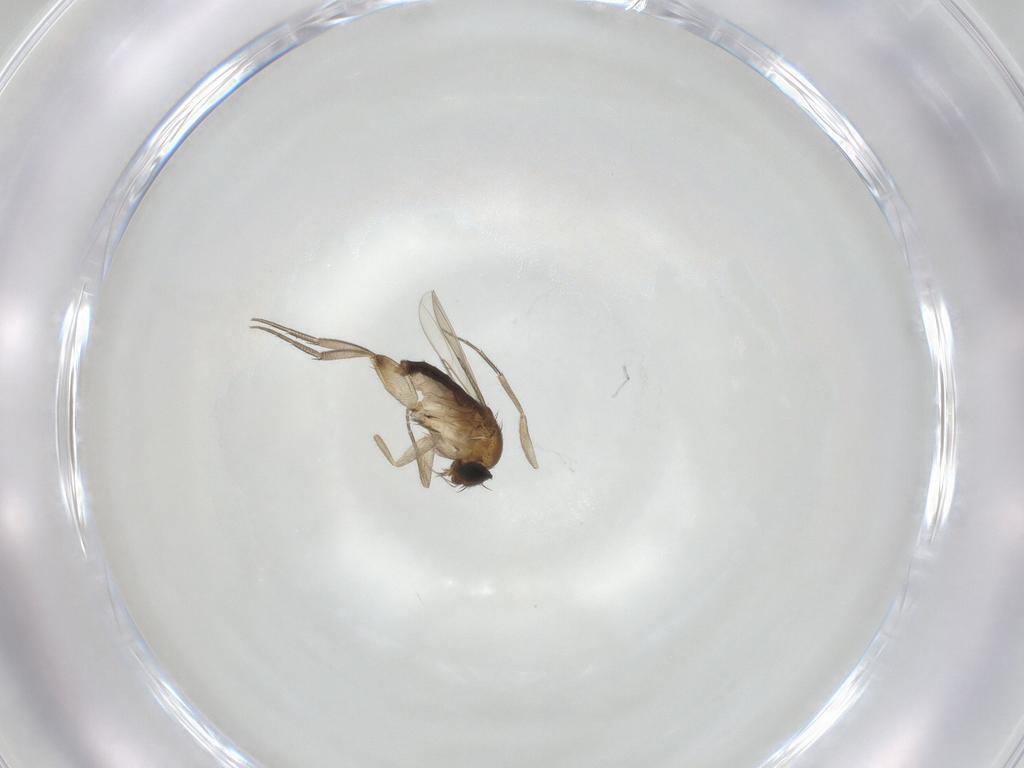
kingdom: Animalia
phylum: Arthropoda
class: Insecta
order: Diptera
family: Phoridae
